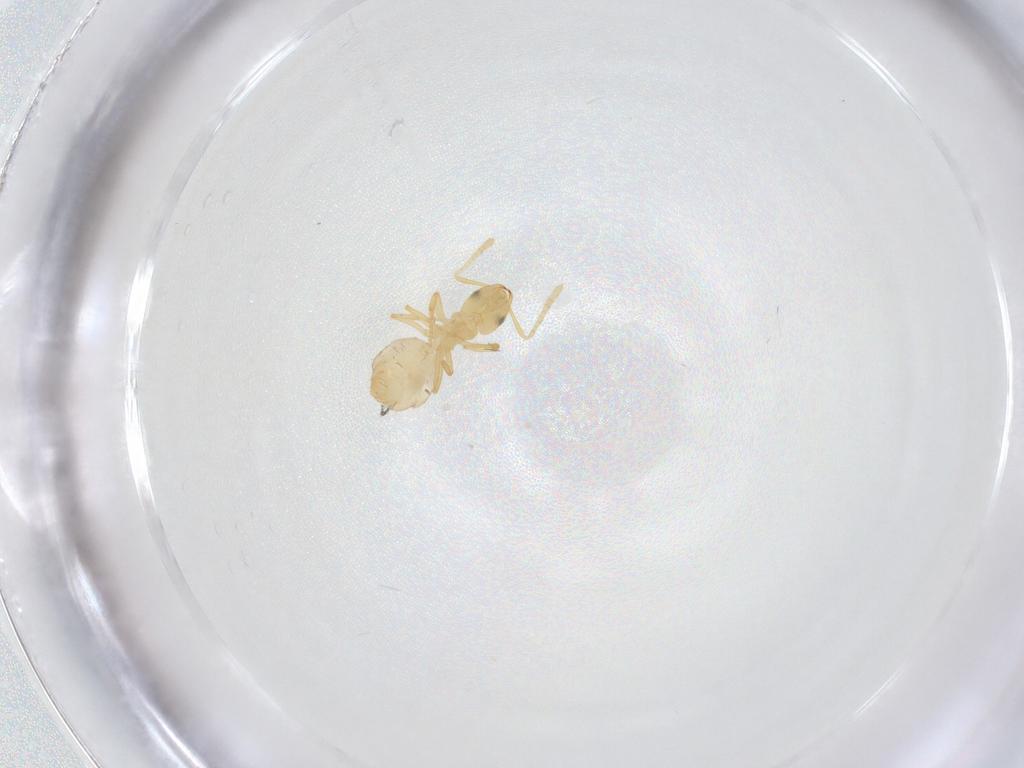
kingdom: Animalia
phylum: Arthropoda
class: Insecta
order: Hymenoptera
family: Formicidae
